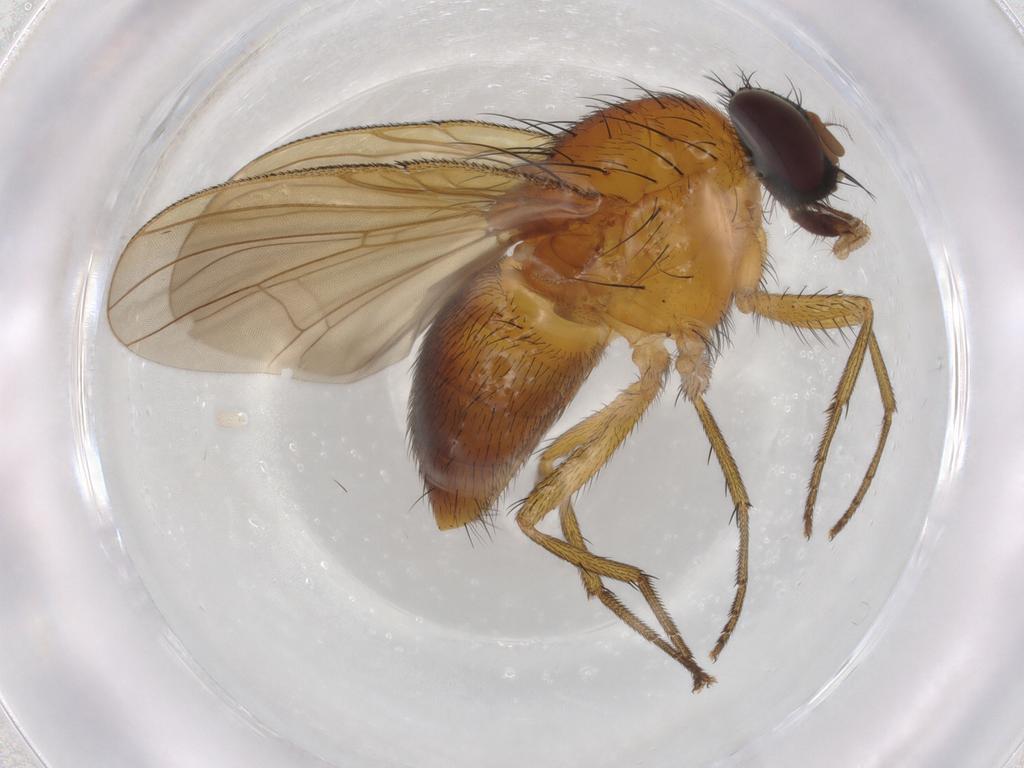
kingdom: Animalia
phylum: Arthropoda
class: Insecta
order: Diptera
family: Muscidae
